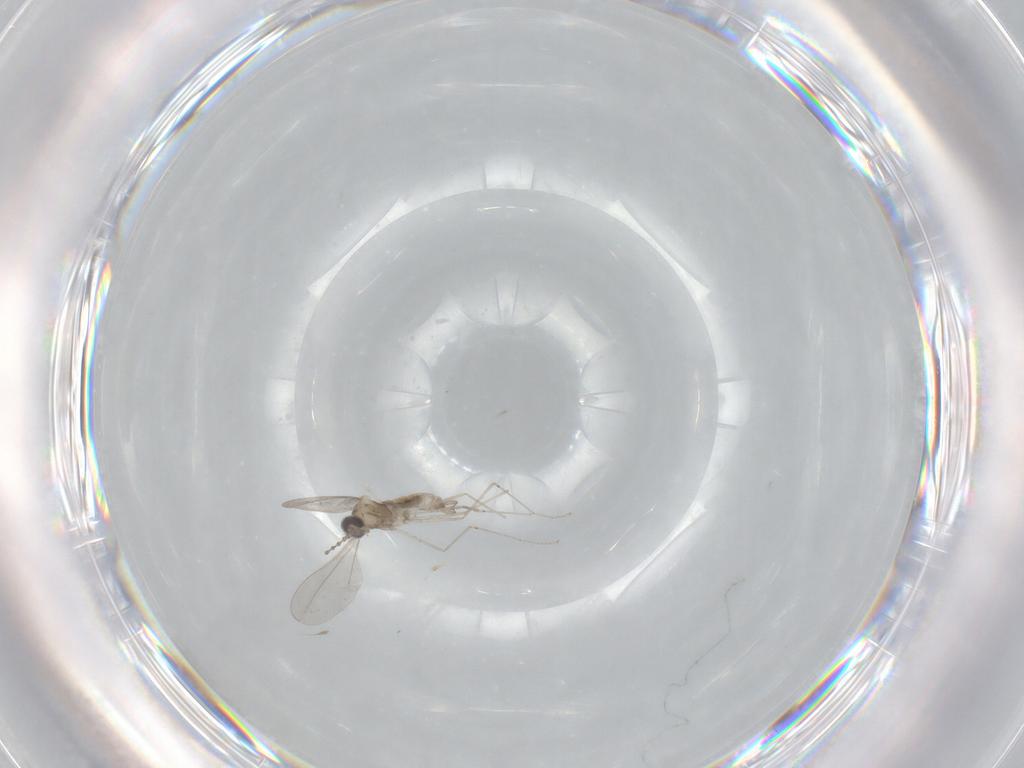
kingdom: Animalia
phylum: Arthropoda
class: Insecta
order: Diptera
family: Cecidomyiidae
